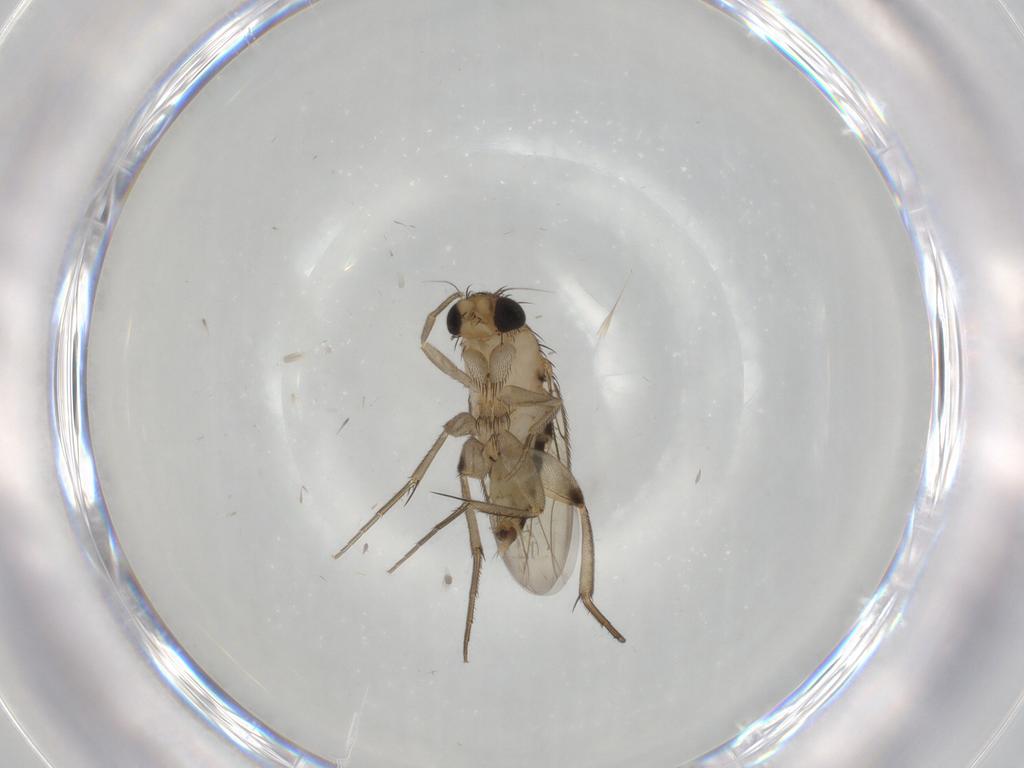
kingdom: Animalia
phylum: Arthropoda
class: Insecta
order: Diptera
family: Phoridae
